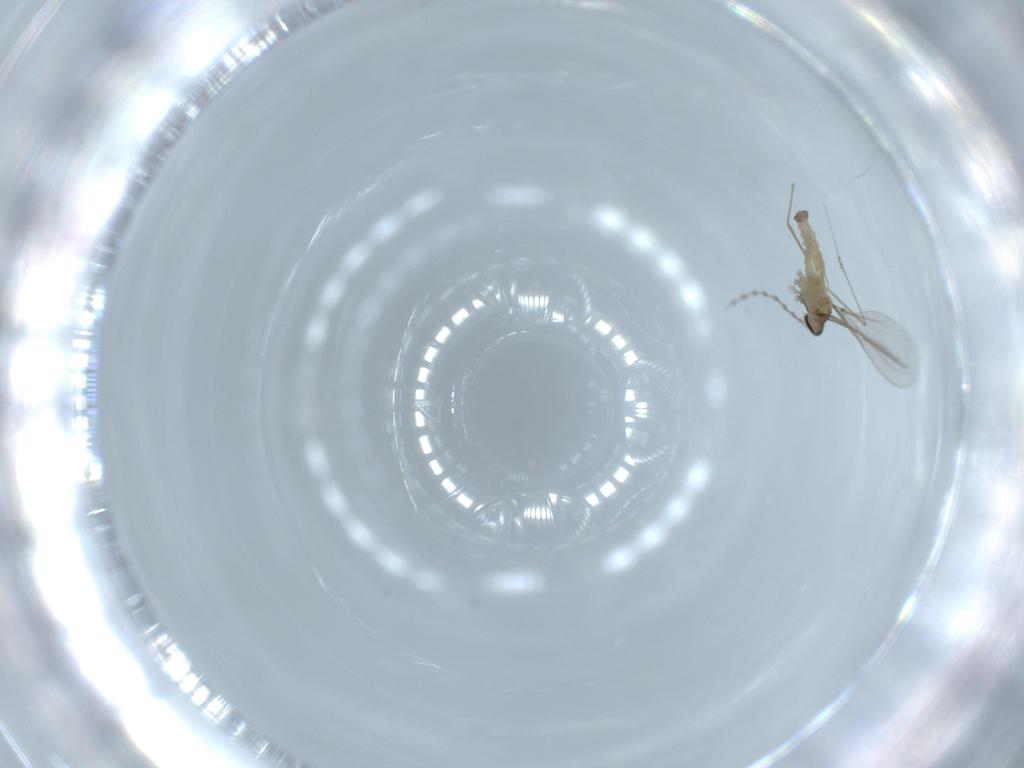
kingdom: Animalia
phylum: Arthropoda
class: Insecta
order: Diptera
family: Cecidomyiidae
